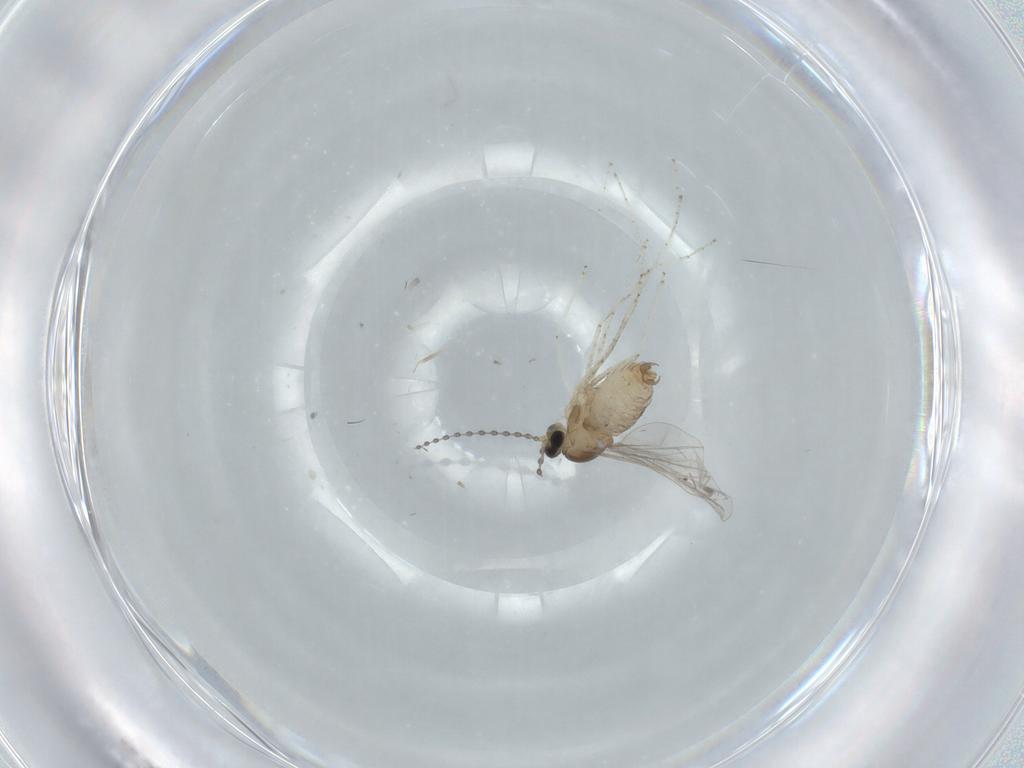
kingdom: Animalia
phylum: Arthropoda
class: Insecta
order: Diptera
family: Cecidomyiidae
